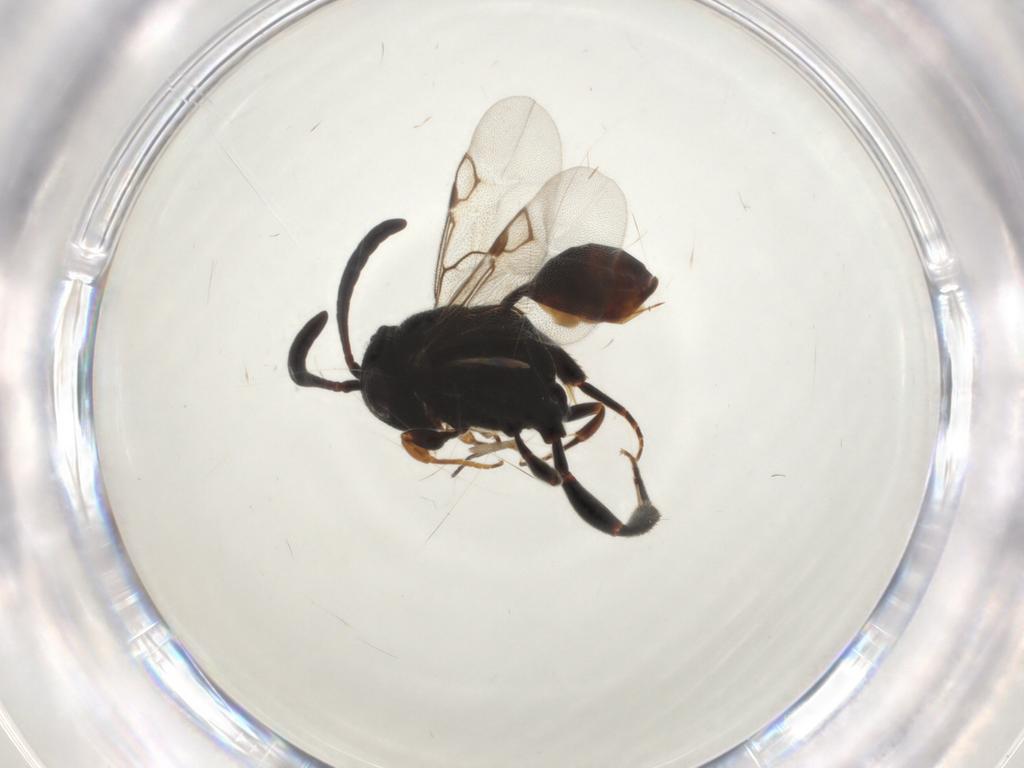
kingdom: Animalia
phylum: Arthropoda
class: Insecta
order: Hymenoptera
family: Evaniidae
